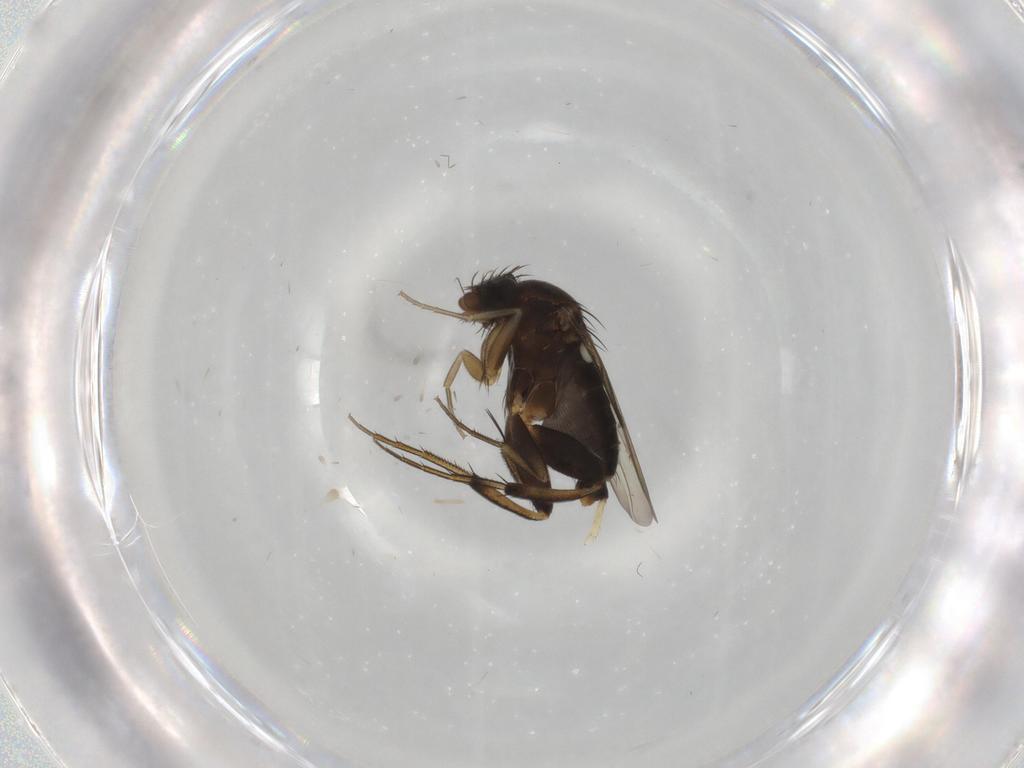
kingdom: Animalia
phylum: Arthropoda
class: Insecta
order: Diptera
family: Phoridae
